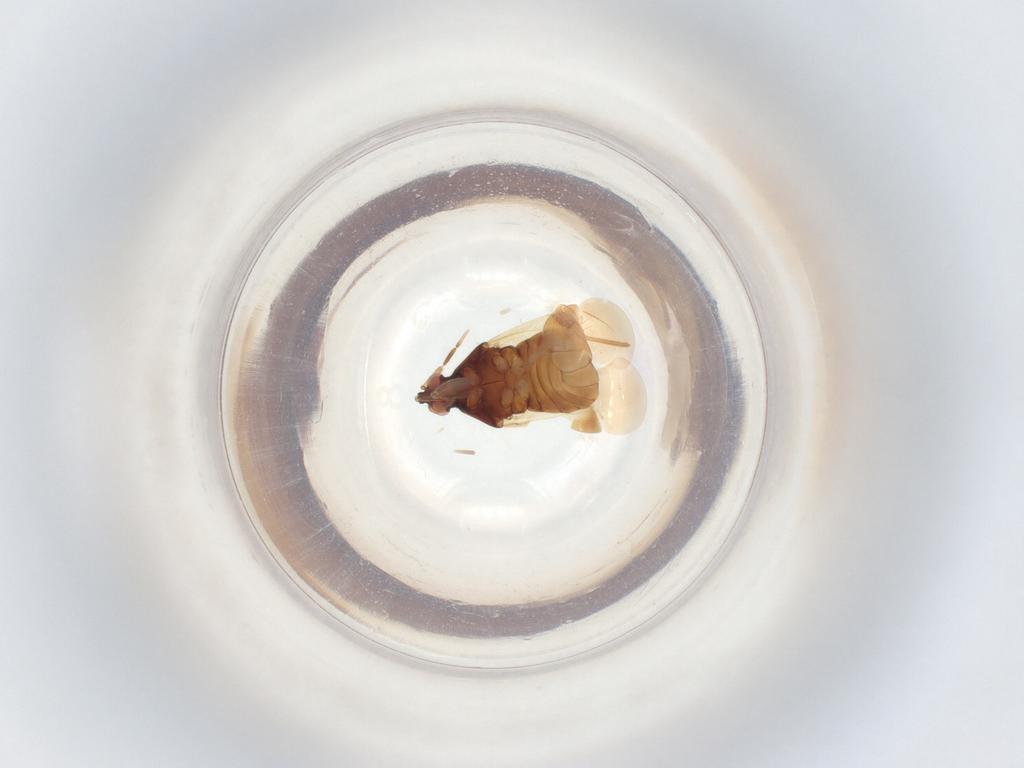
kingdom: Animalia
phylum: Arthropoda
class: Insecta
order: Hemiptera
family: Anthocoridae
